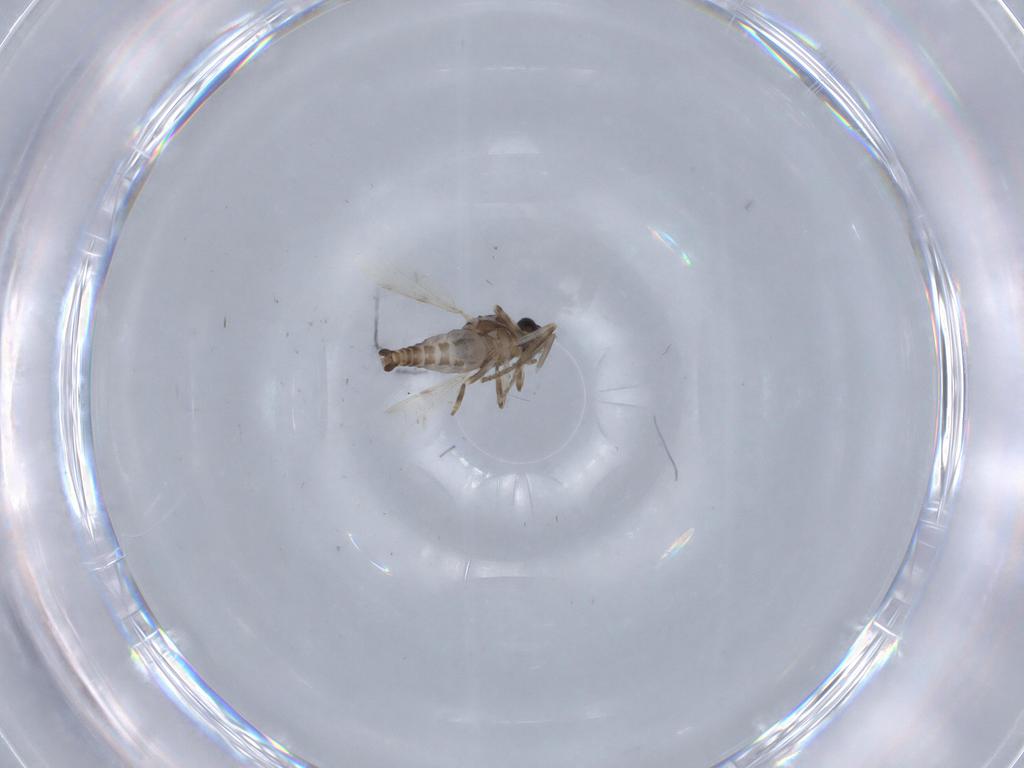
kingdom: Animalia
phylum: Arthropoda
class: Insecta
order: Diptera
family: Ceratopogonidae
